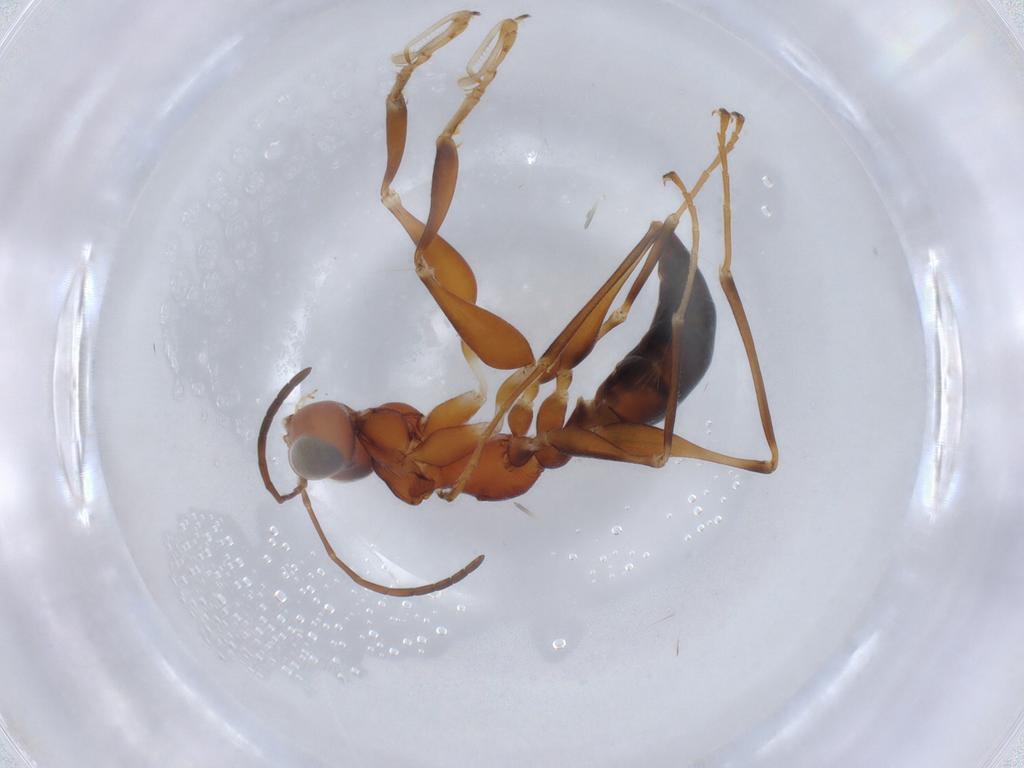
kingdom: Animalia
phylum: Arthropoda
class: Insecta
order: Hymenoptera
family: Braconidae
